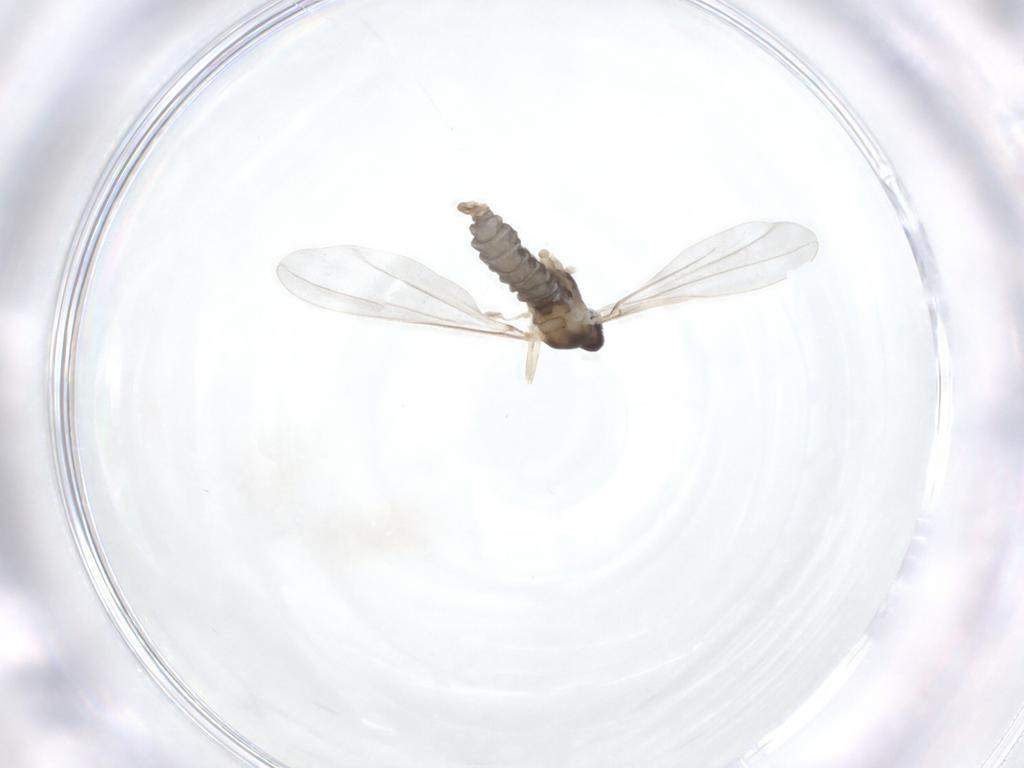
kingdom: Animalia
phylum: Arthropoda
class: Insecta
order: Diptera
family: Cecidomyiidae
